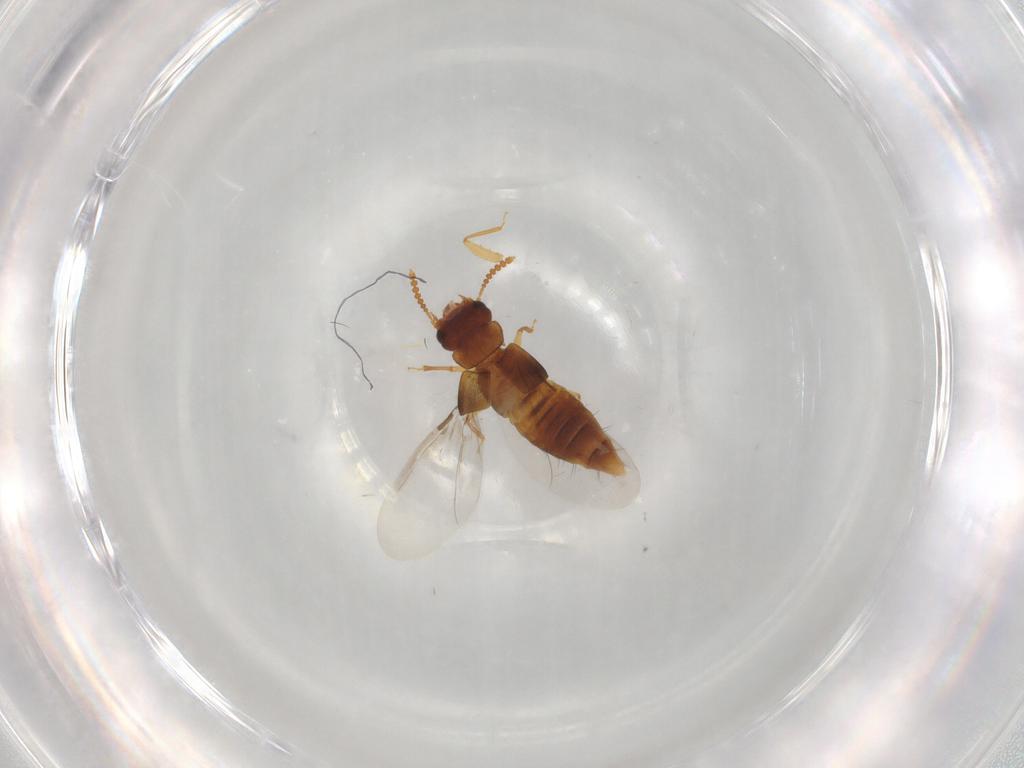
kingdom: Animalia
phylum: Arthropoda
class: Insecta
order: Coleoptera
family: Staphylinidae
